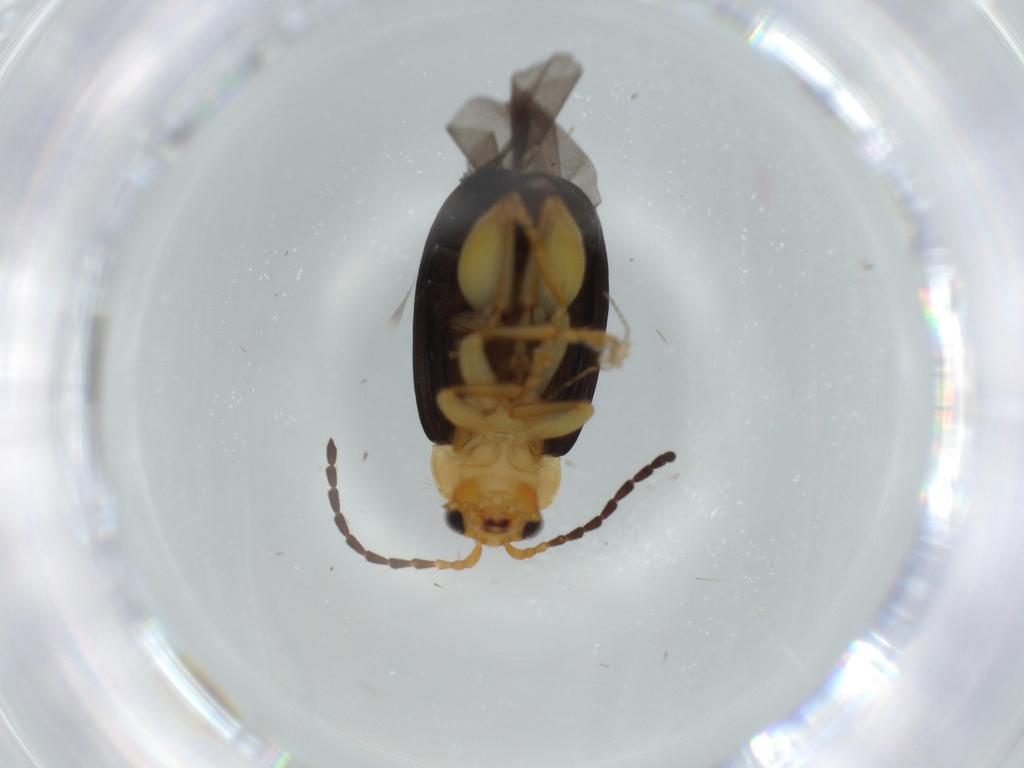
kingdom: Animalia
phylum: Arthropoda
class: Insecta
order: Coleoptera
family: Chrysomelidae
